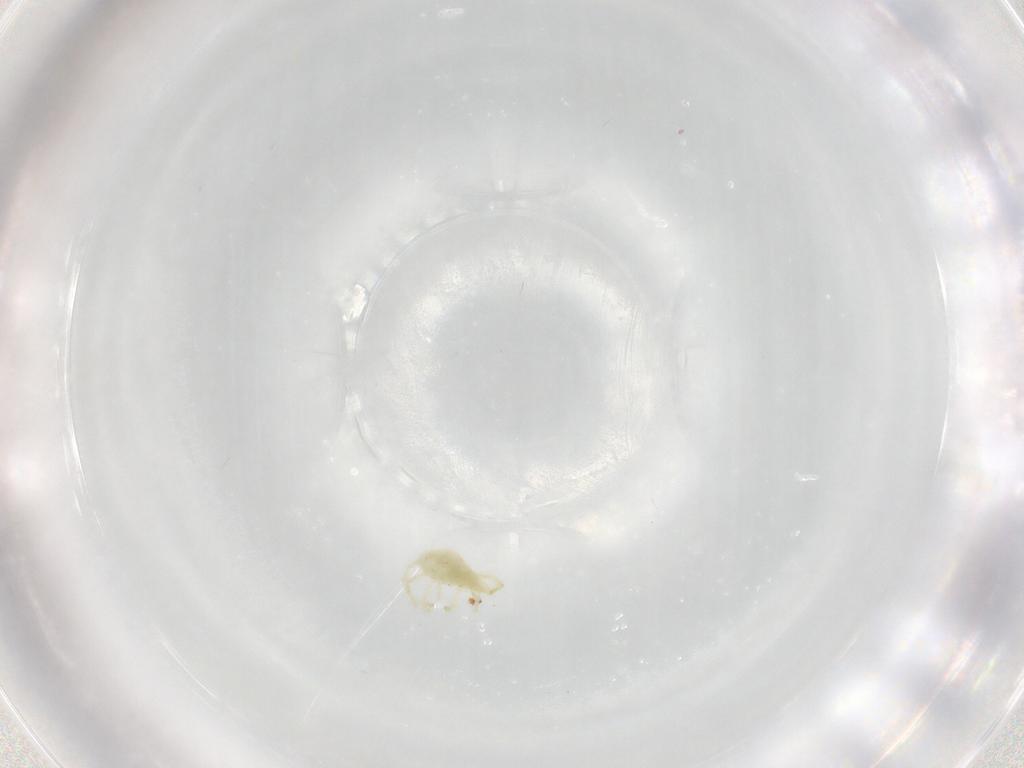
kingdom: Animalia
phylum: Arthropoda
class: Arachnida
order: Trombidiformes
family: Erythraeidae
